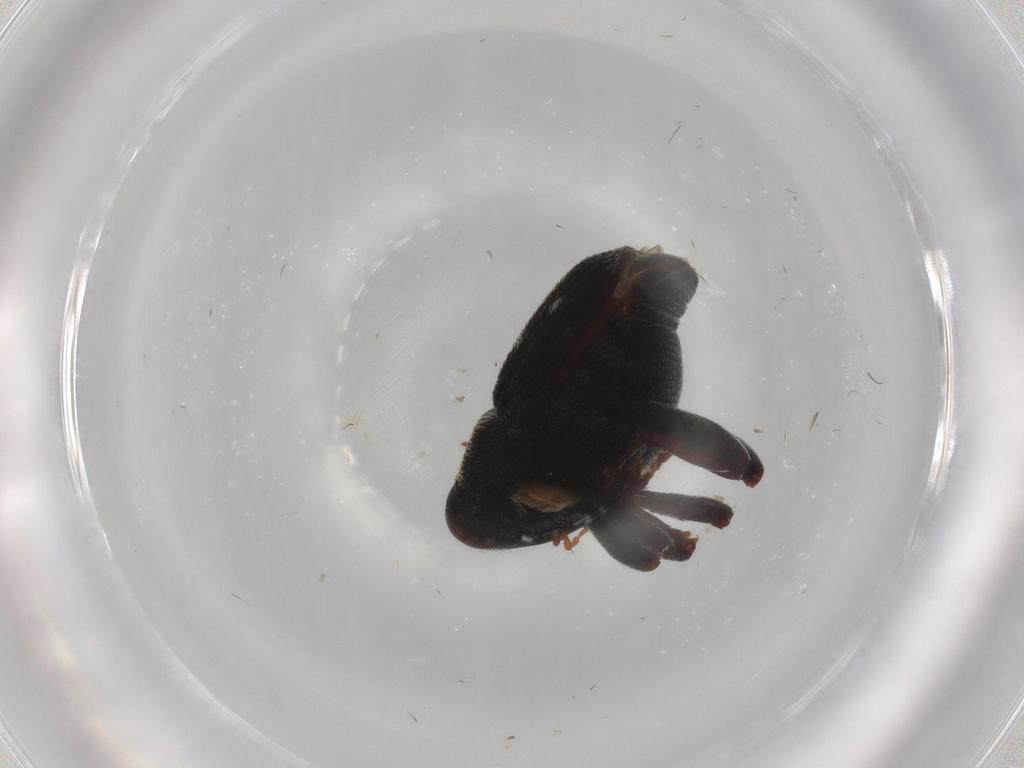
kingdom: Animalia
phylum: Arthropoda
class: Insecta
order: Coleoptera
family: Curculionidae
